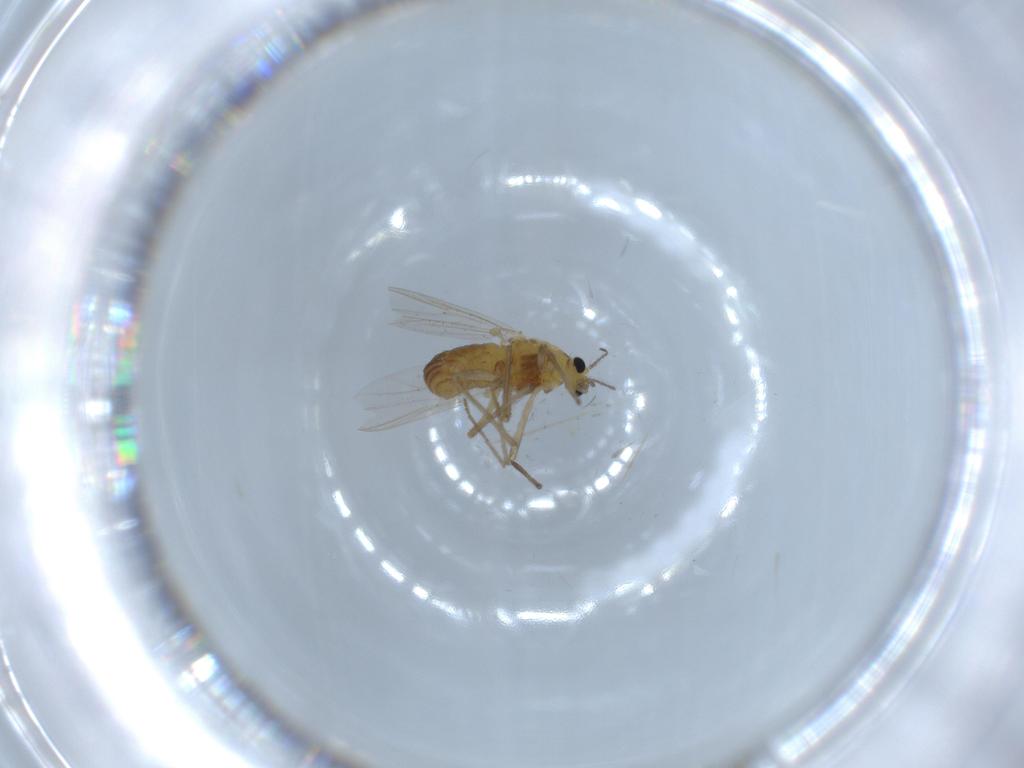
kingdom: Animalia
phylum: Arthropoda
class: Insecta
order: Diptera
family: Chironomidae
